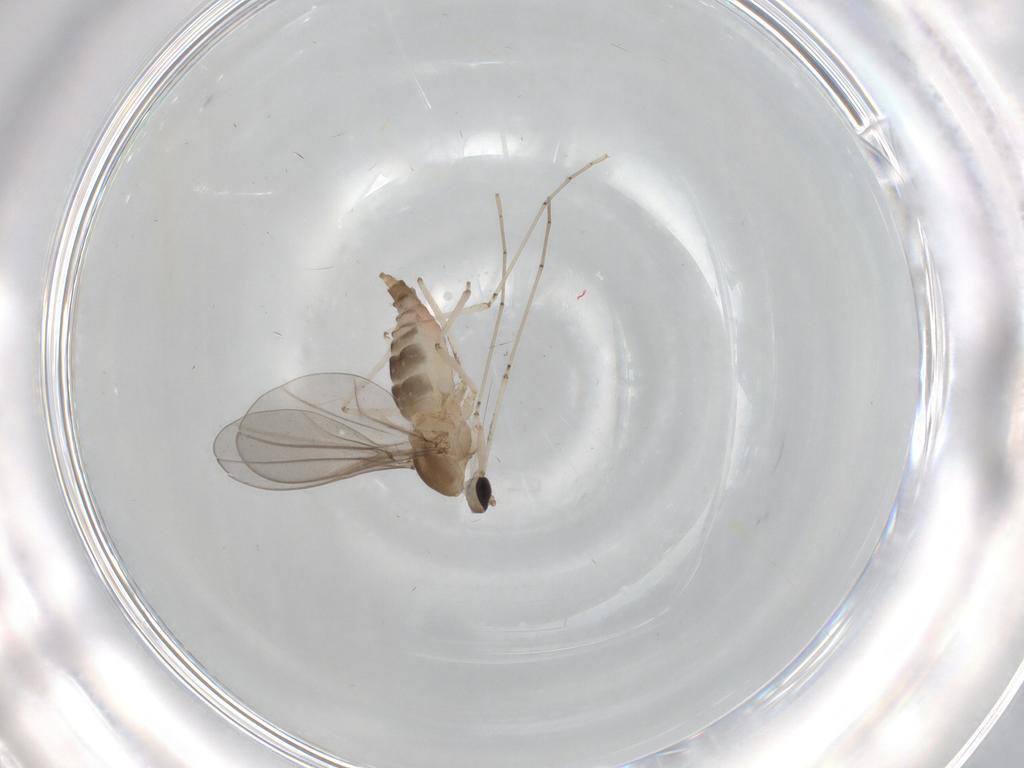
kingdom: Animalia
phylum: Arthropoda
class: Insecta
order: Diptera
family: Cecidomyiidae
